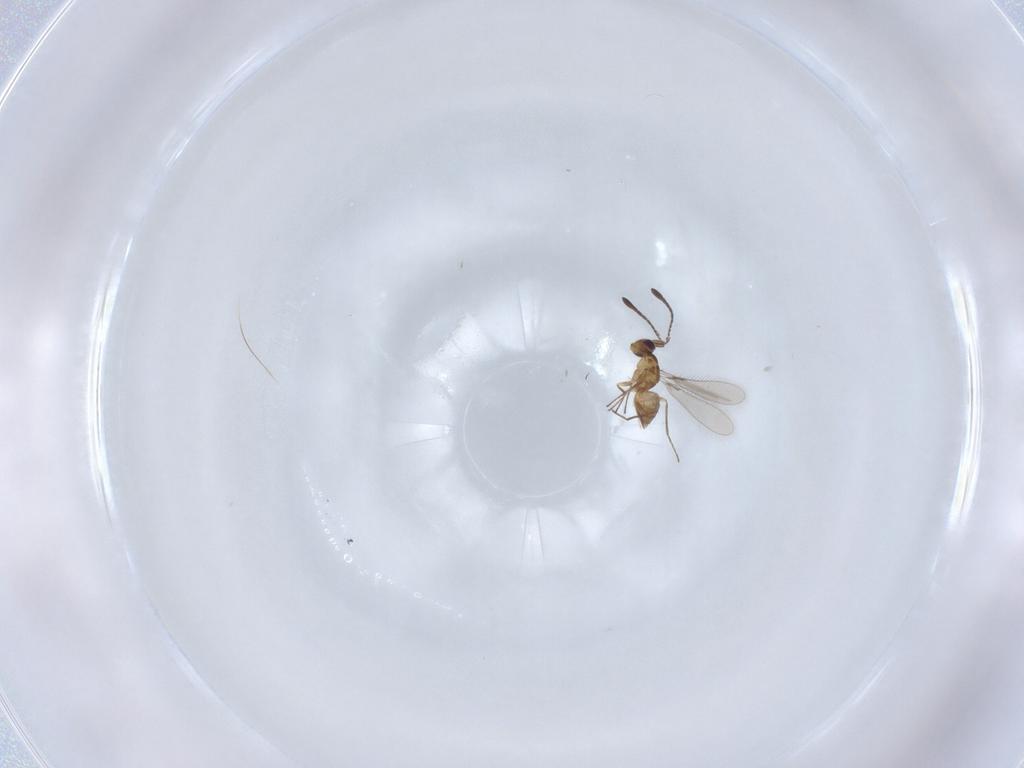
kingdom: Animalia
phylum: Arthropoda
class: Insecta
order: Hymenoptera
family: Mymaridae
